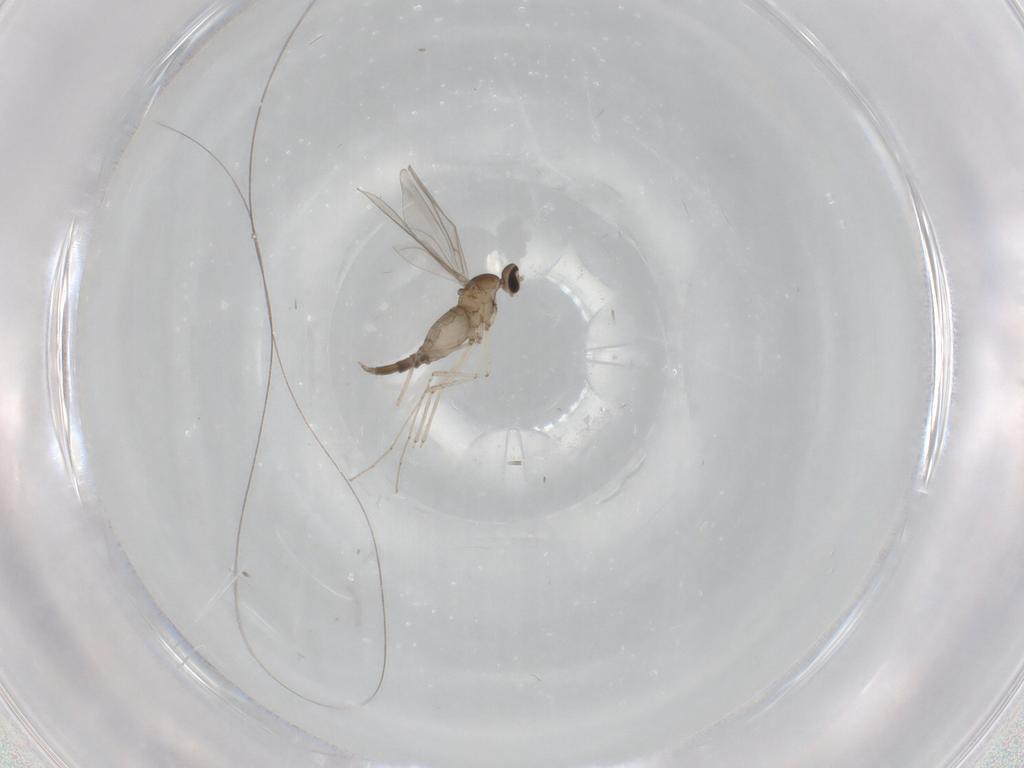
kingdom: Animalia
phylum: Arthropoda
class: Insecta
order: Diptera
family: Cecidomyiidae
